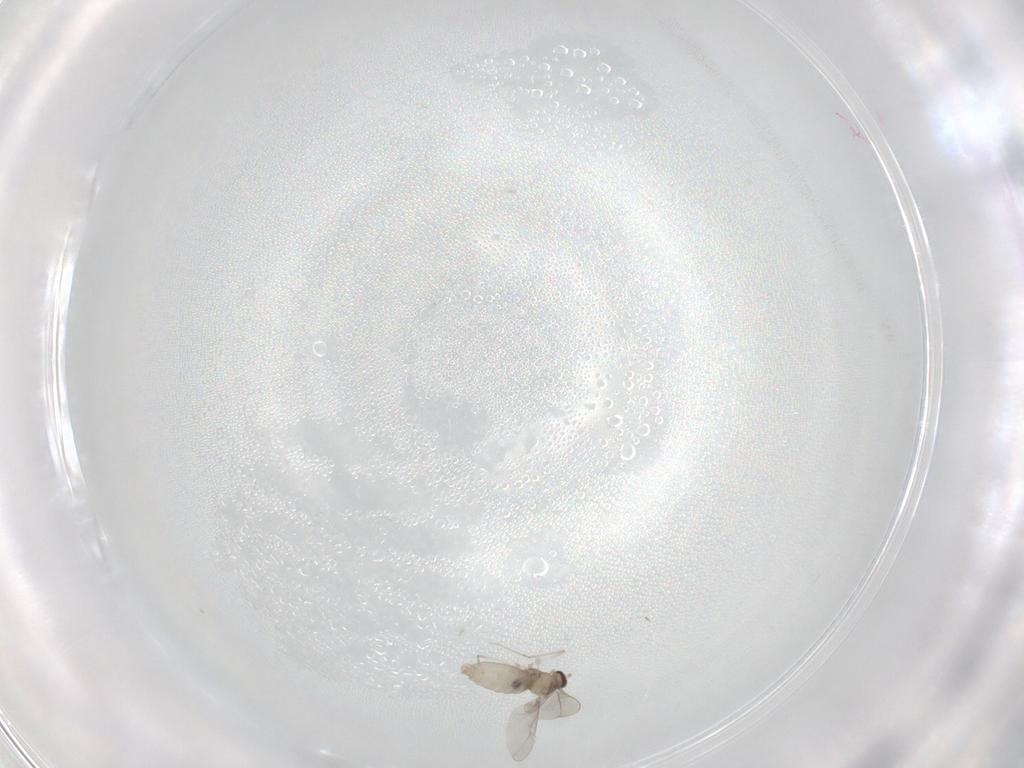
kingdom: Animalia
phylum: Arthropoda
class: Insecta
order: Diptera
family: Cecidomyiidae
